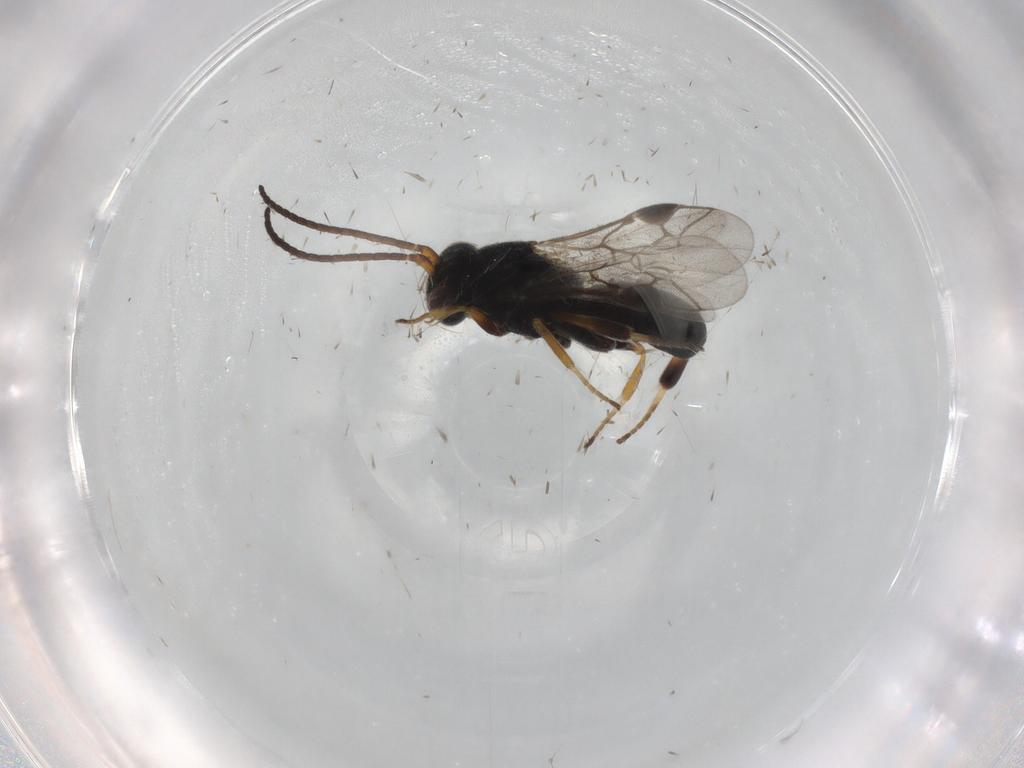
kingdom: Animalia
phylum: Arthropoda
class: Insecta
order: Hymenoptera
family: Braconidae
